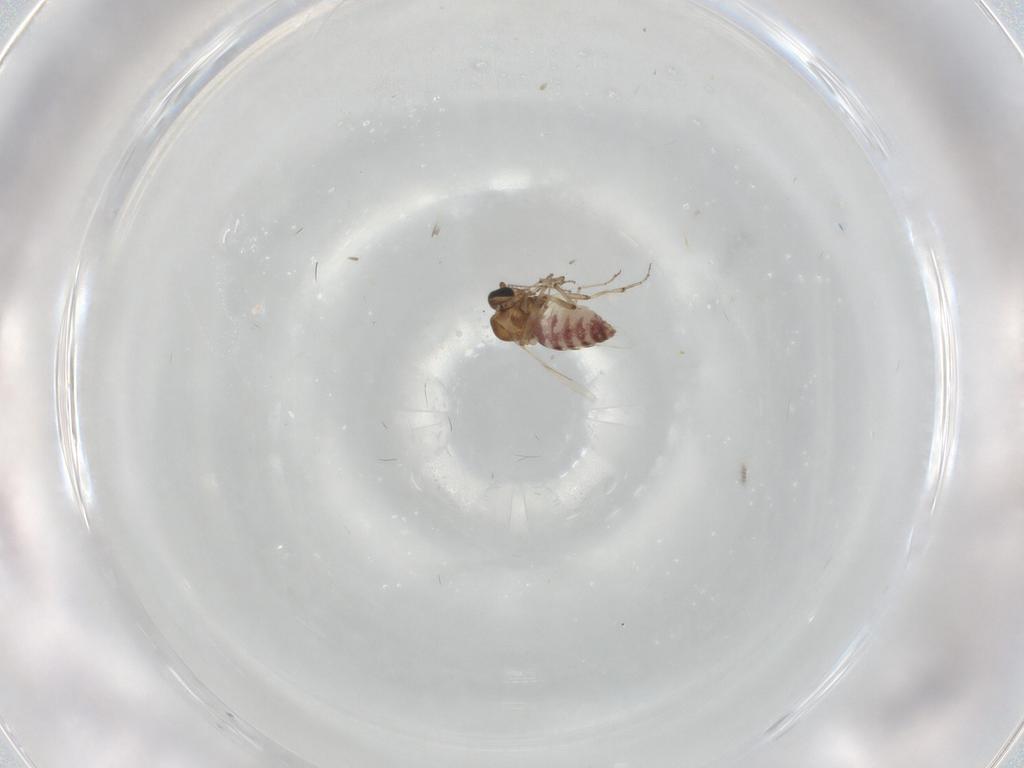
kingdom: Animalia
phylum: Arthropoda
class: Insecta
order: Diptera
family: Ceratopogonidae
